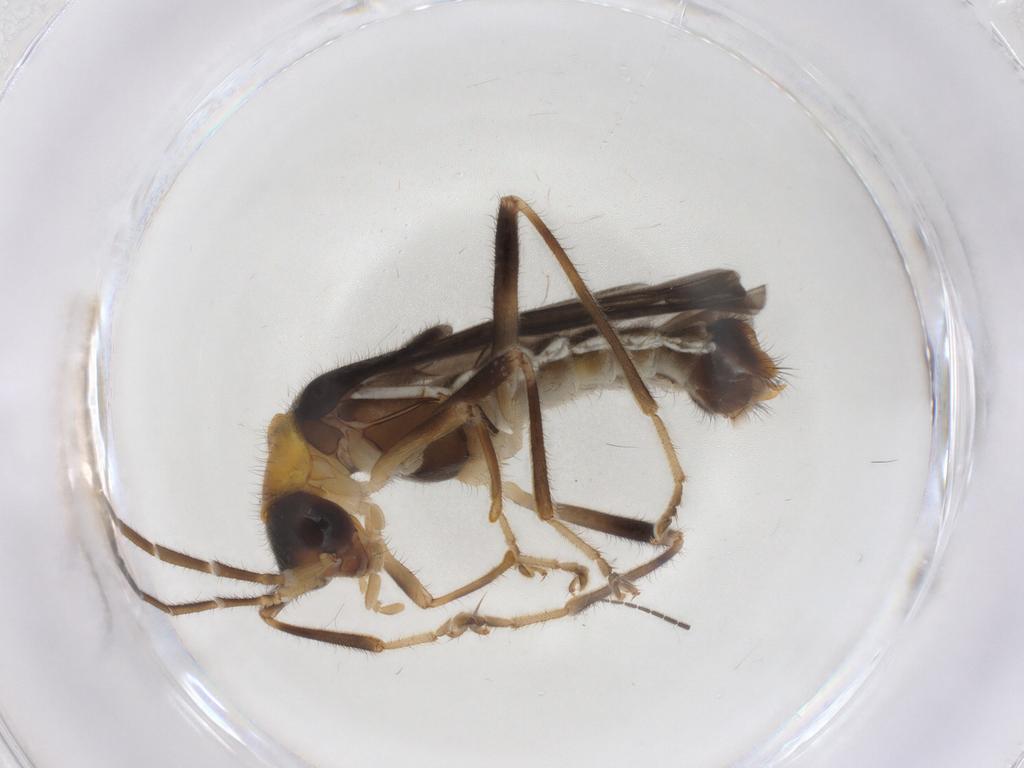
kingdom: Animalia
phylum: Arthropoda
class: Insecta
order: Coleoptera
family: Cantharidae
